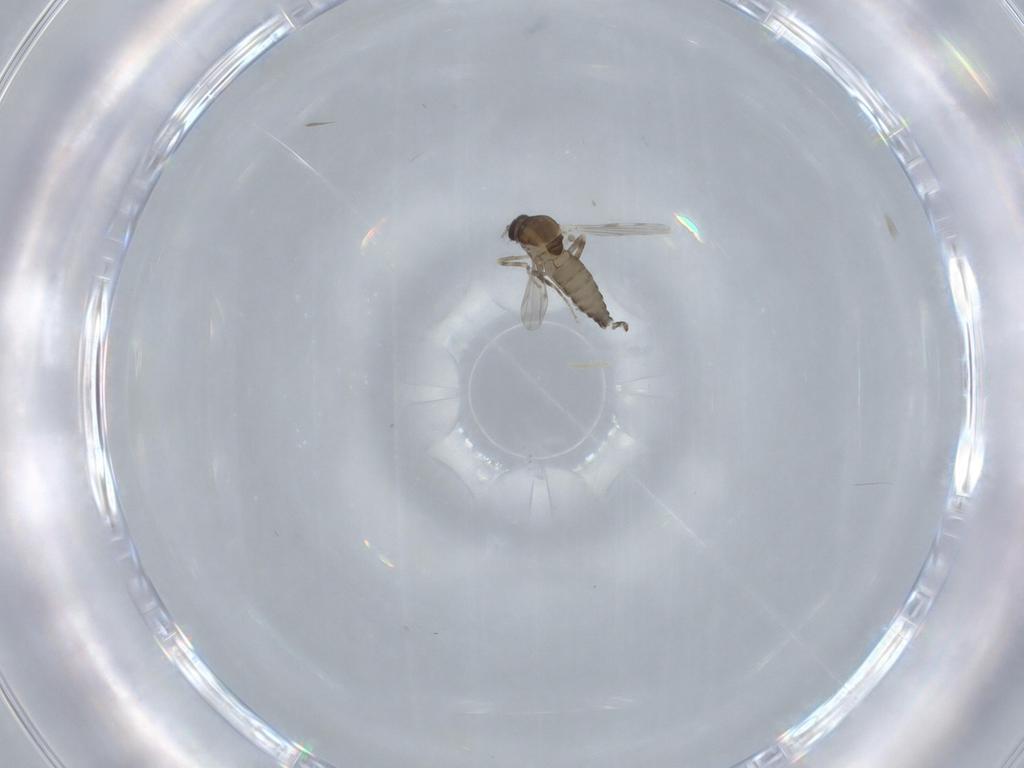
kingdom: Animalia
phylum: Arthropoda
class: Insecta
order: Diptera
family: Ceratopogonidae
